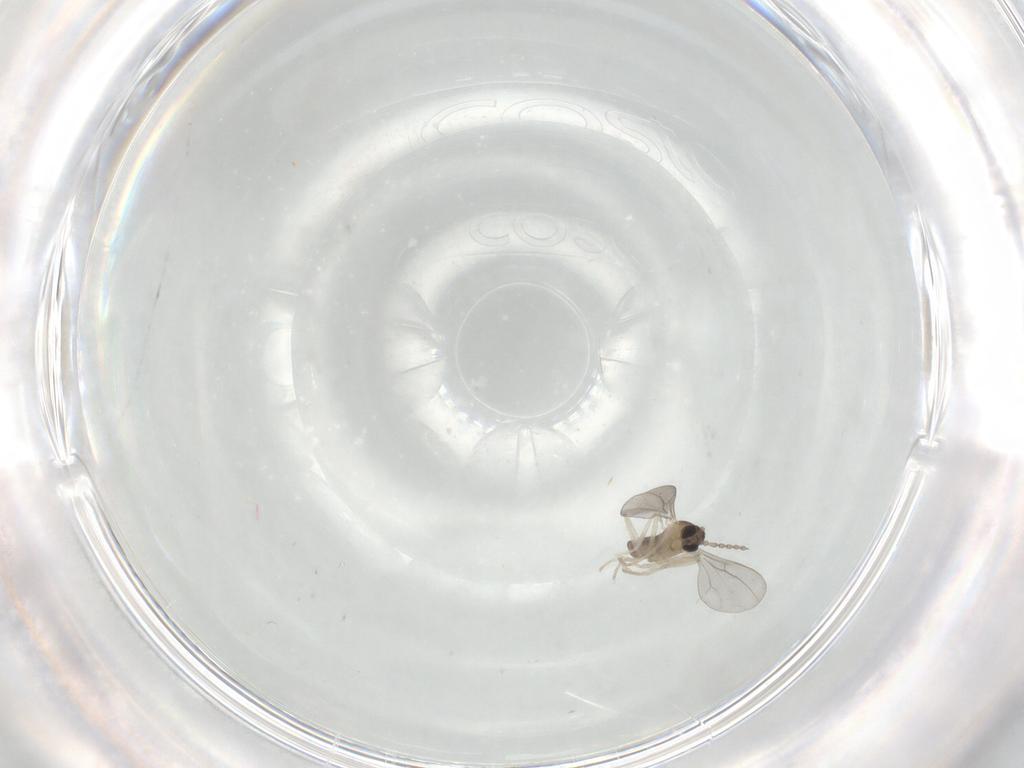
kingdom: Animalia
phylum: Arthropoda
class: Insecta
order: Diptera
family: Cecidomyiidae
